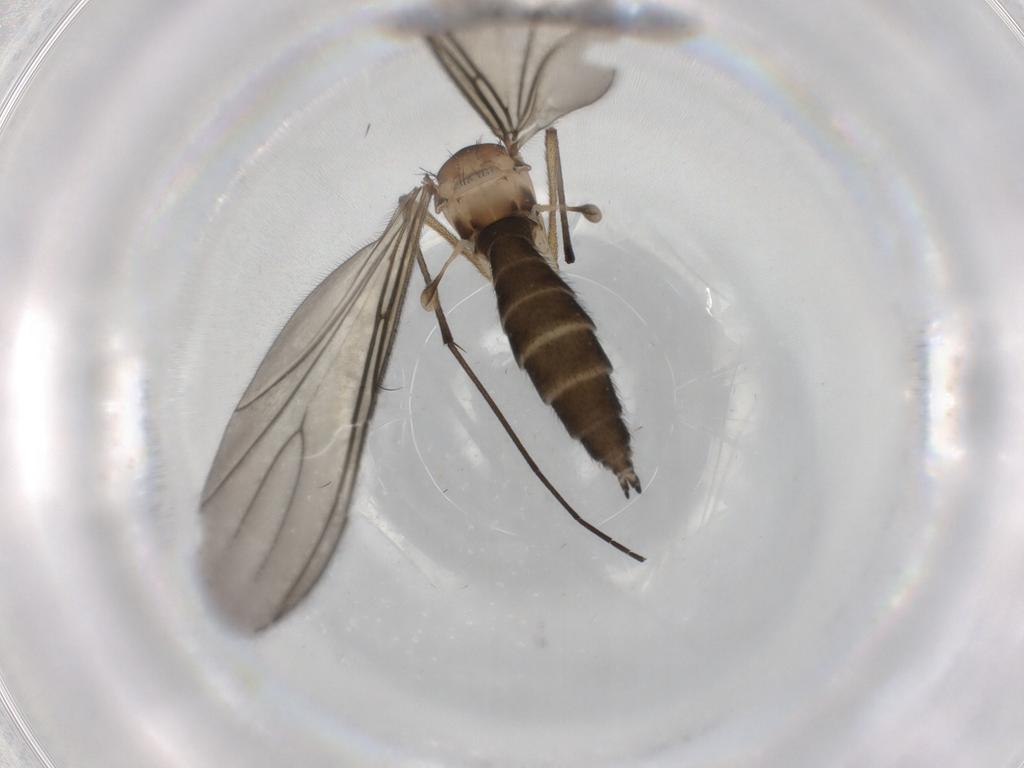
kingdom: Animalia
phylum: Arthropoda
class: Insecta
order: Diptera
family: Sciaridae
